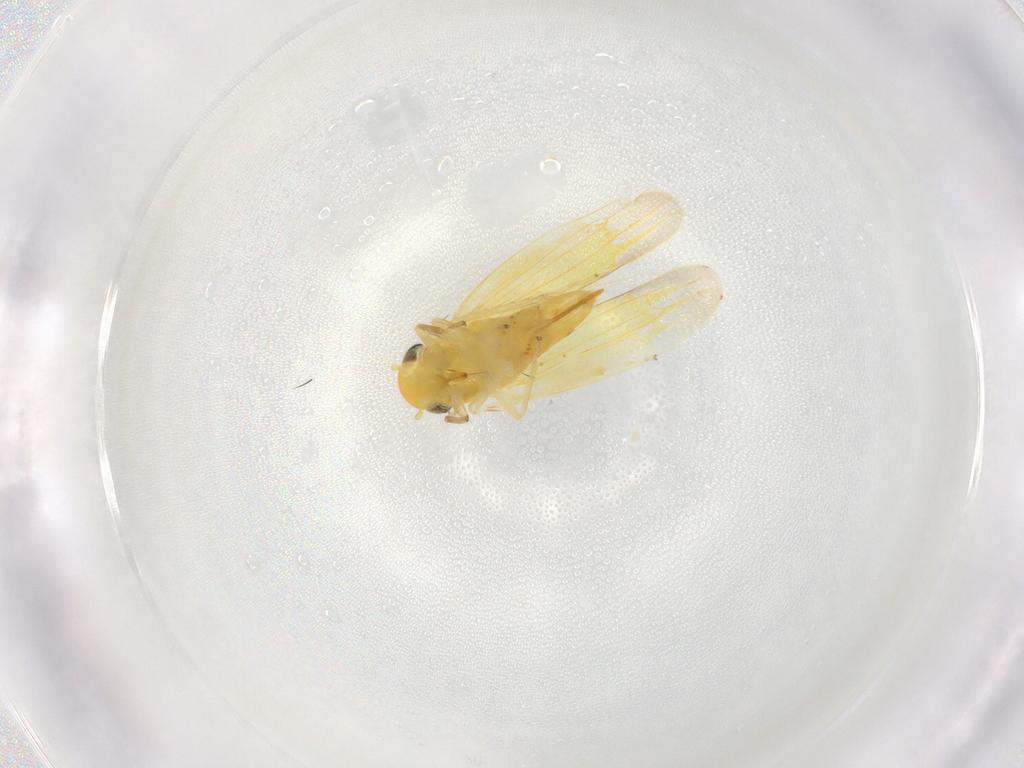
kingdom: Animalia
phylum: Arthropoda
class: Insecta
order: Hemiptera
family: Cicadellidae
